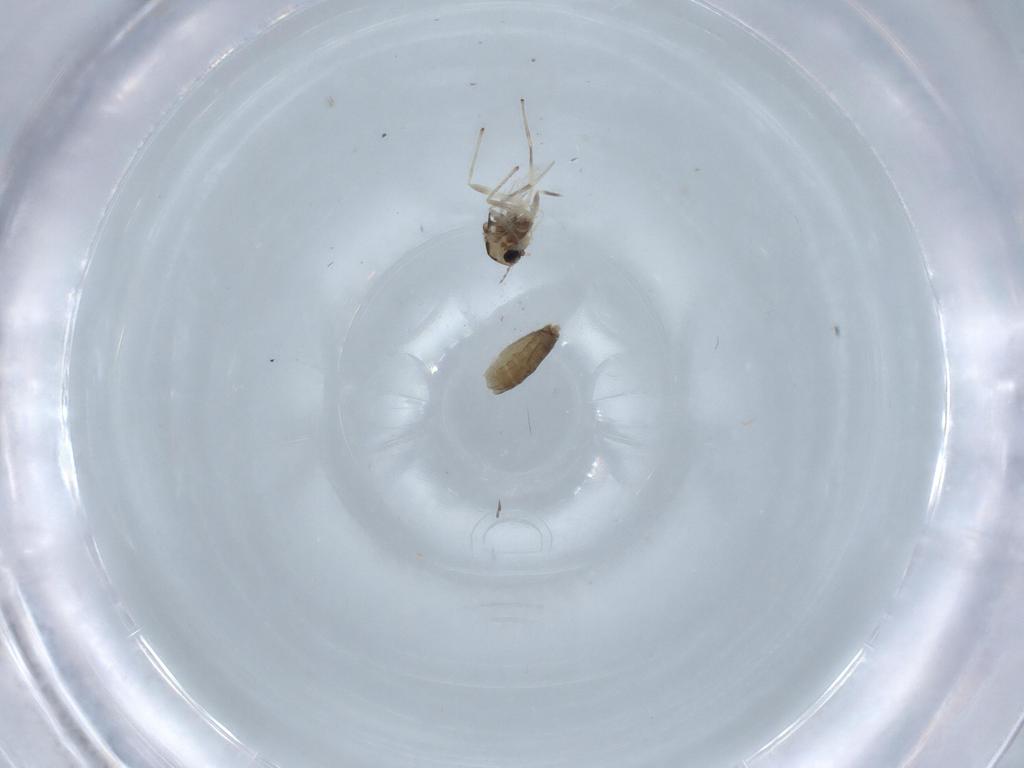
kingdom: Animalia
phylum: Arthropoda
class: Insecta
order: Diptera
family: Chironomidae
